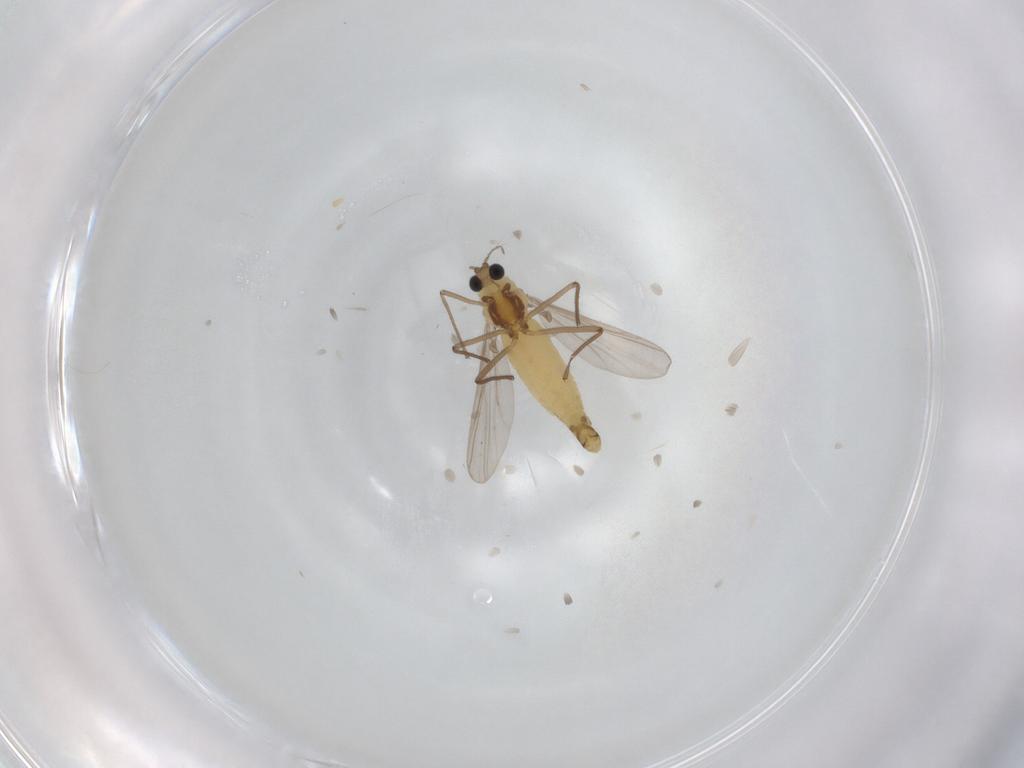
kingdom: Animalia
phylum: Arthropoda
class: Insecta
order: Diptera
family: Cecidomyiidae
